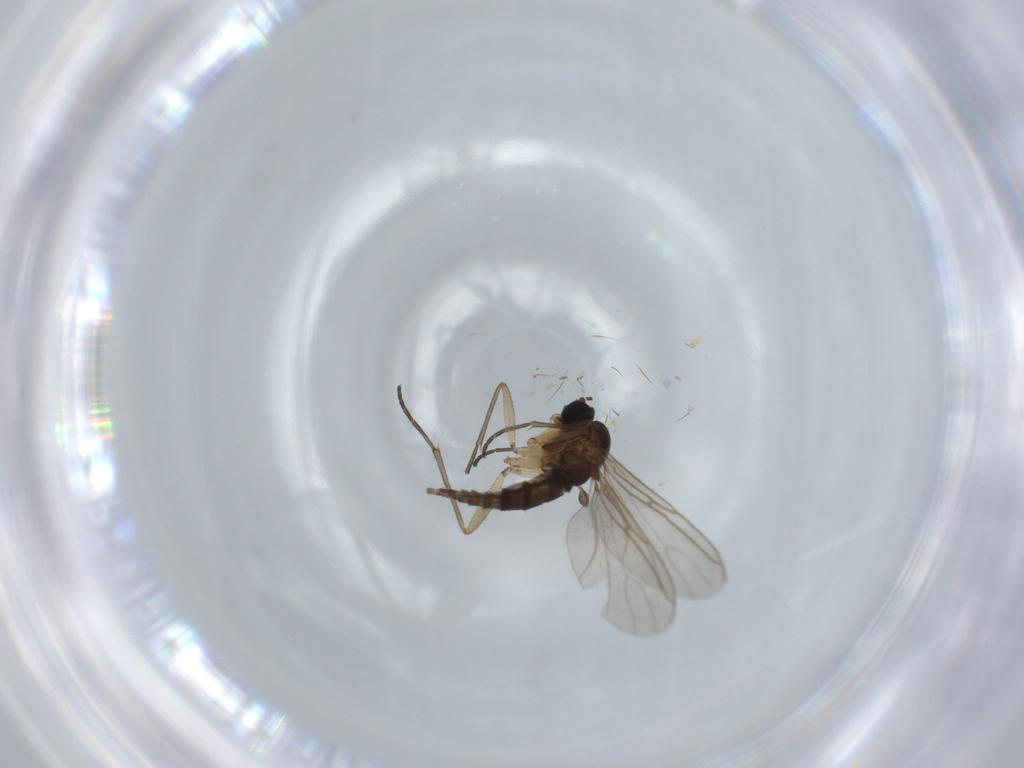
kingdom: Animalia
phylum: Arthropoda
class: Insecta
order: Diptera
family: Sciaridae
